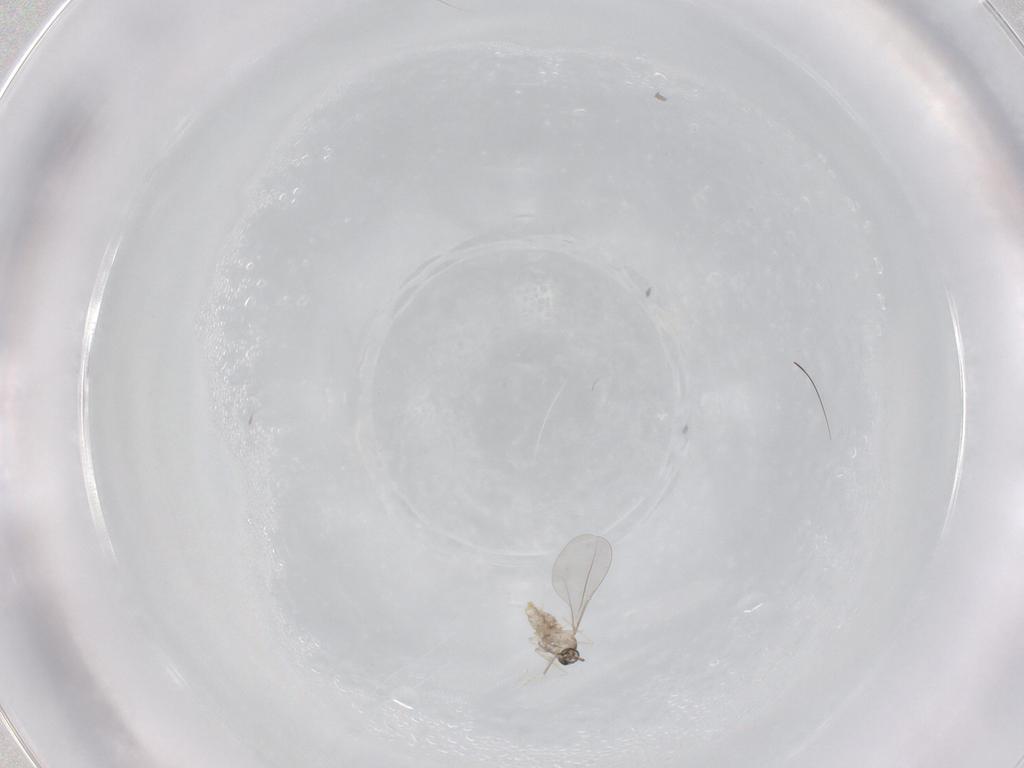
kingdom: Animalia
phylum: Arthropoda
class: Insecta
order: Diptera
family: Cecidomyiidae
